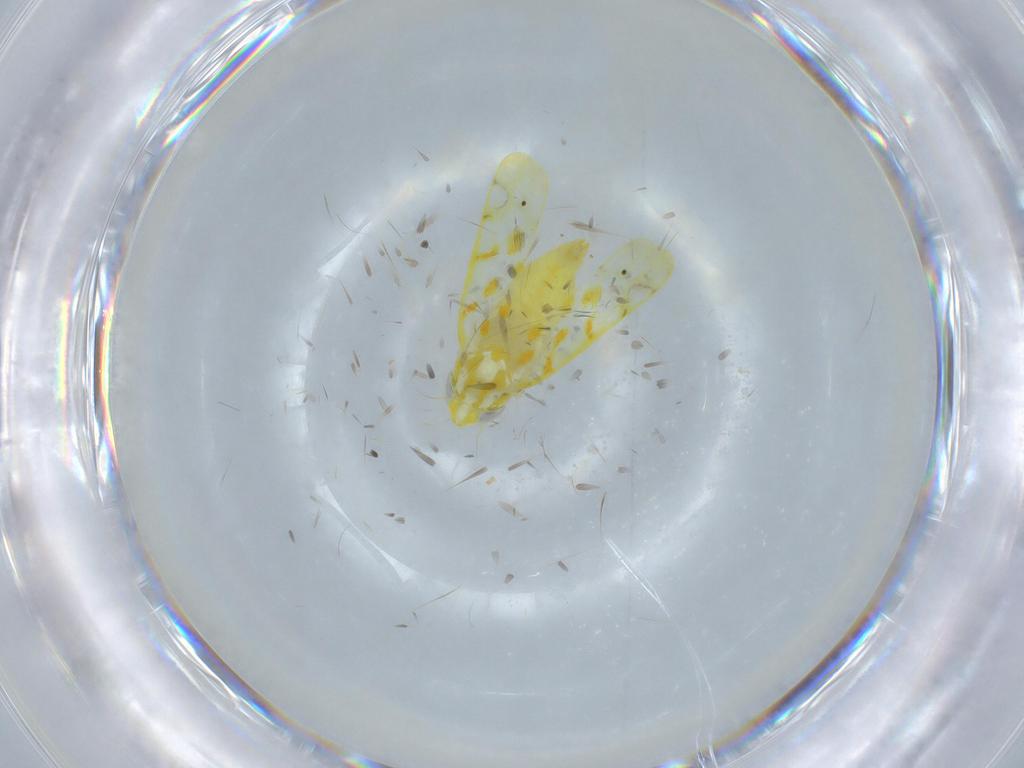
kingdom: Animalia
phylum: Arthropoda
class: Insecta
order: Hemiptera
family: Cicadellidae
